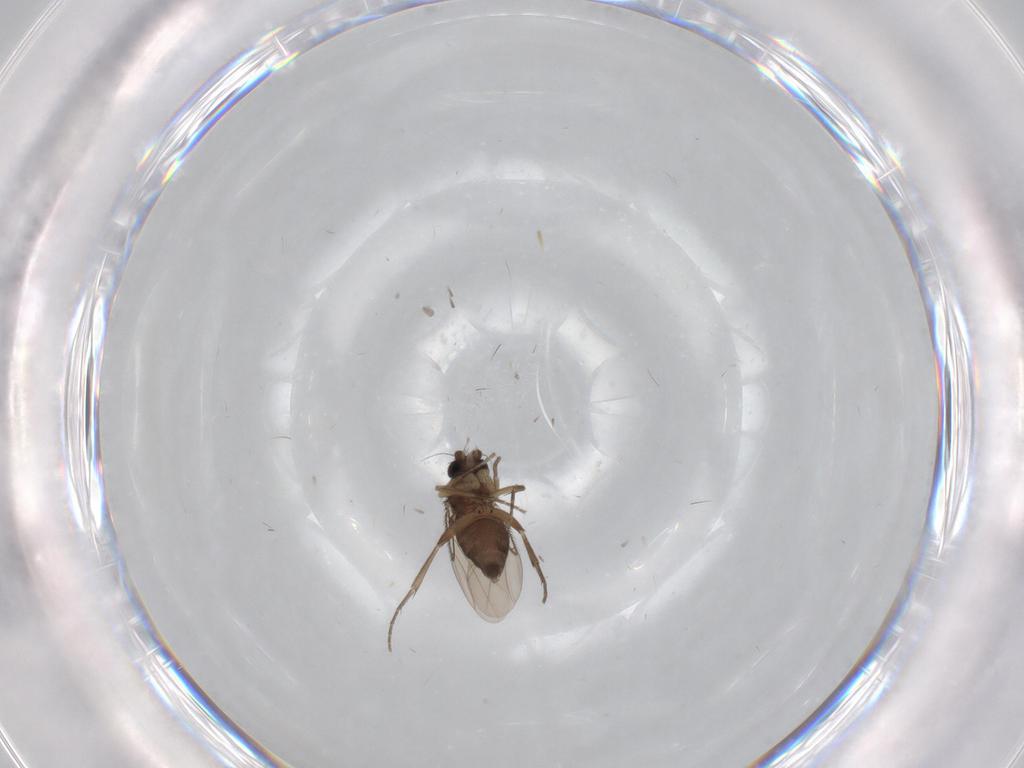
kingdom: Animalia
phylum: Arthropoda
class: Insecta
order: Diptera
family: Phoridae
